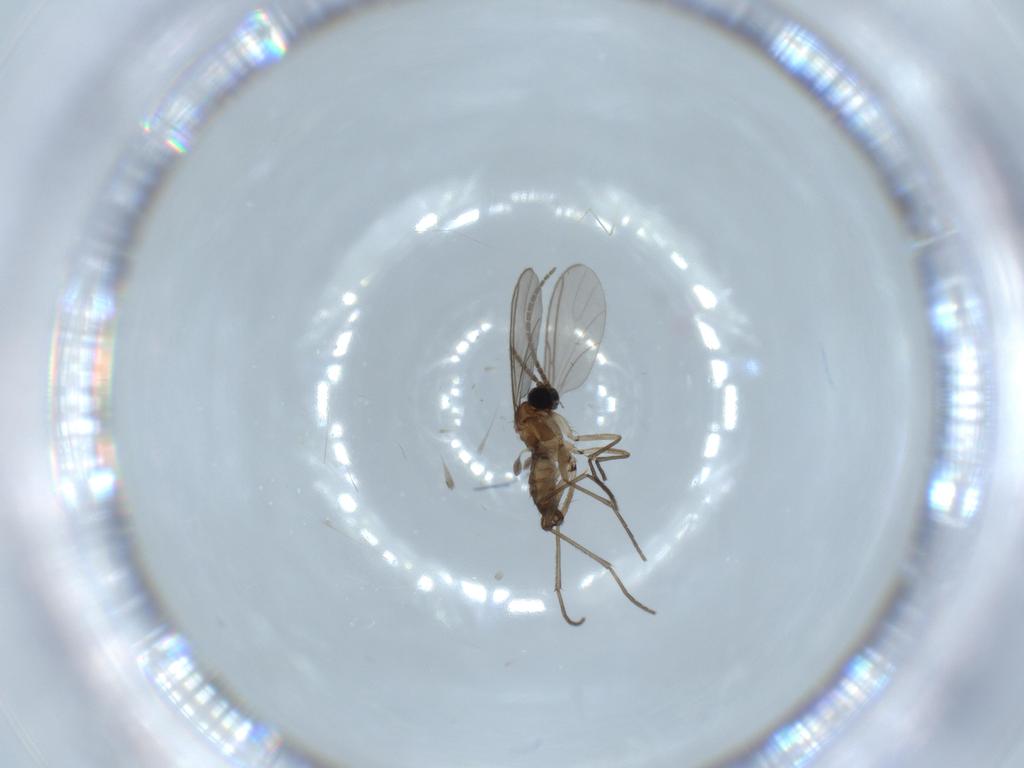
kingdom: Animalia
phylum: Arthropoda
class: Insecta
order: Diptera
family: Sciaridae
